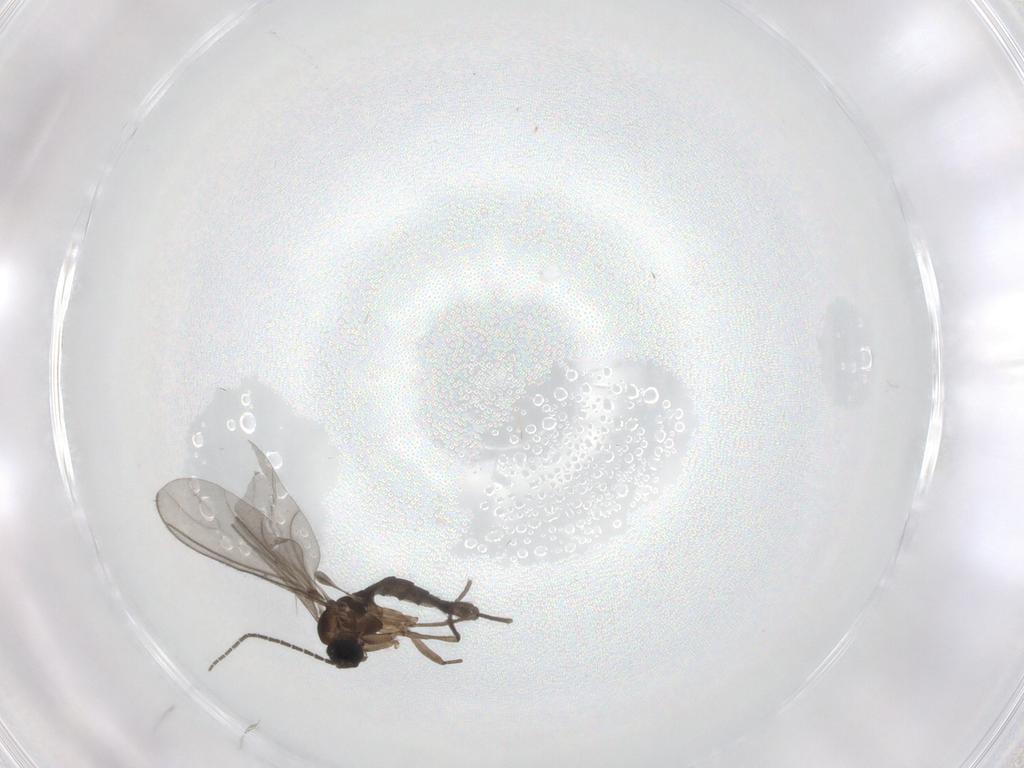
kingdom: Animalia
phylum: Arthropoda
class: Insecta
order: Diptera
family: Sciaridae
